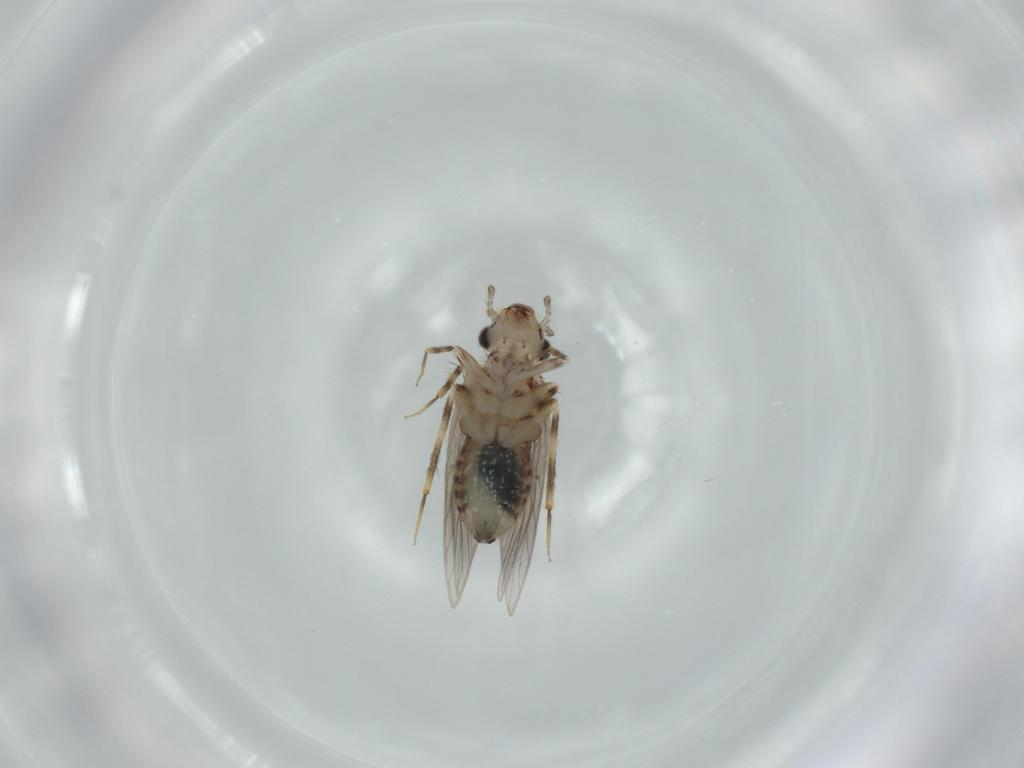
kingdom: Animalia
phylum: Arthropoda
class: Insecta
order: Psocodea
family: Lepidopsocidae
